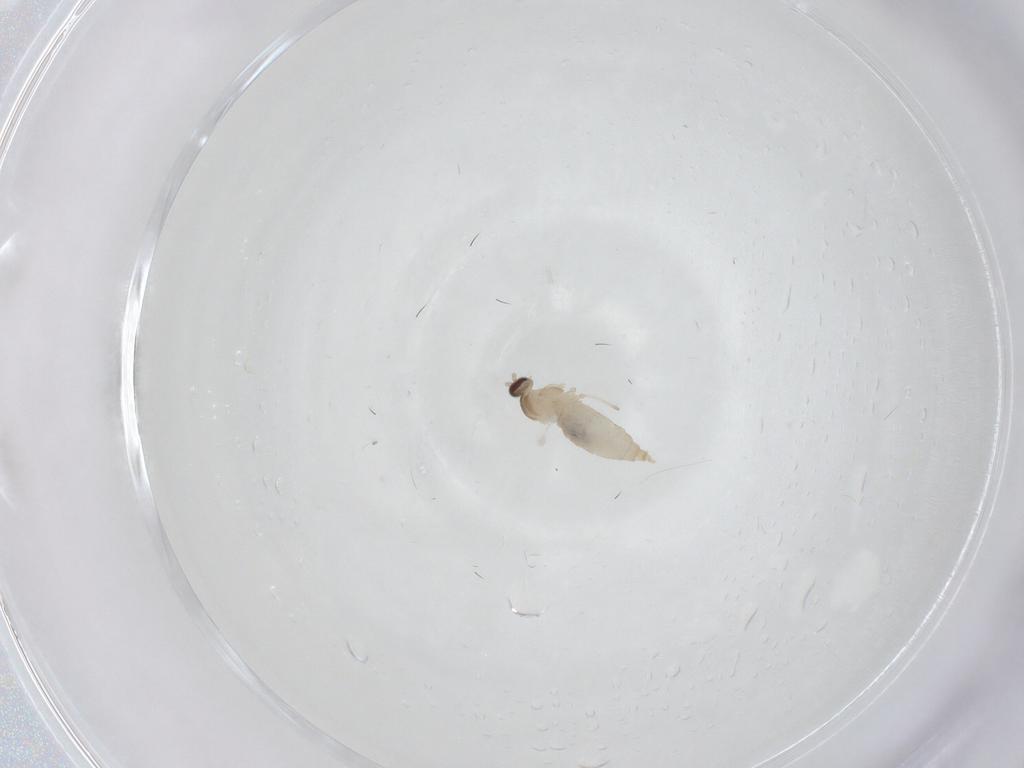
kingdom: Animalia
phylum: Arthropoda
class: Insecta
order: Diptera
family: Cecidomyiidae
